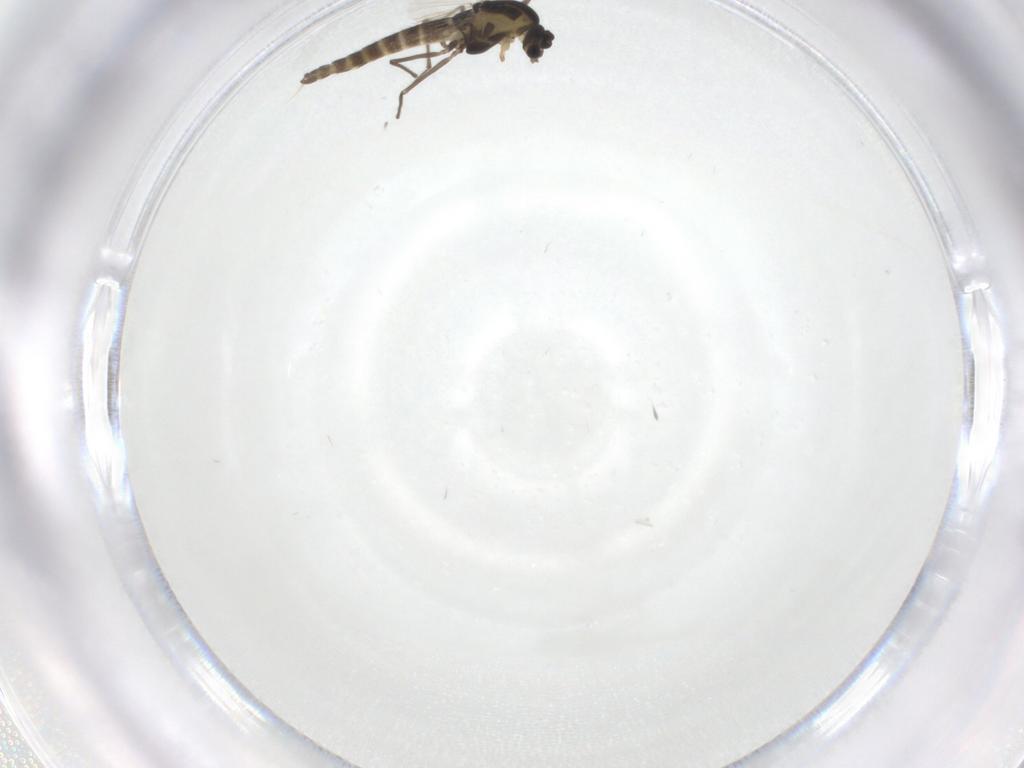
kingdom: Animalia
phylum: Arthropoda
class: Insecta
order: Diptera
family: Chironomidae
